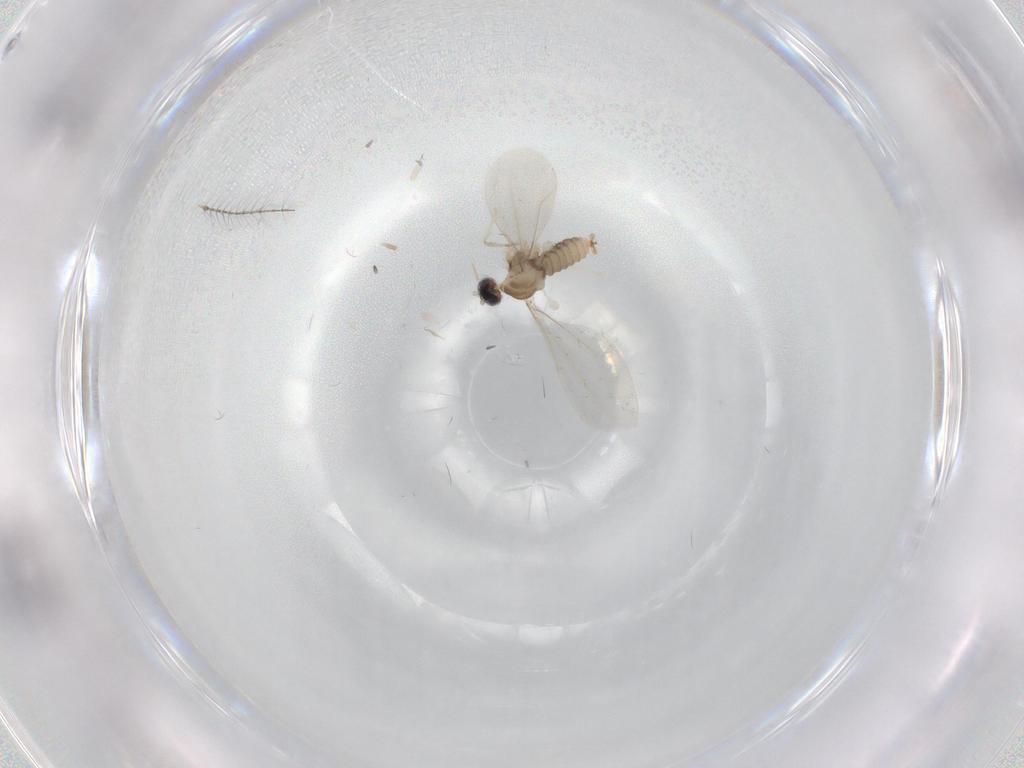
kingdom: Animalia
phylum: Arthropoda
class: Insecta
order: Diptera
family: Cecidomyiidae
